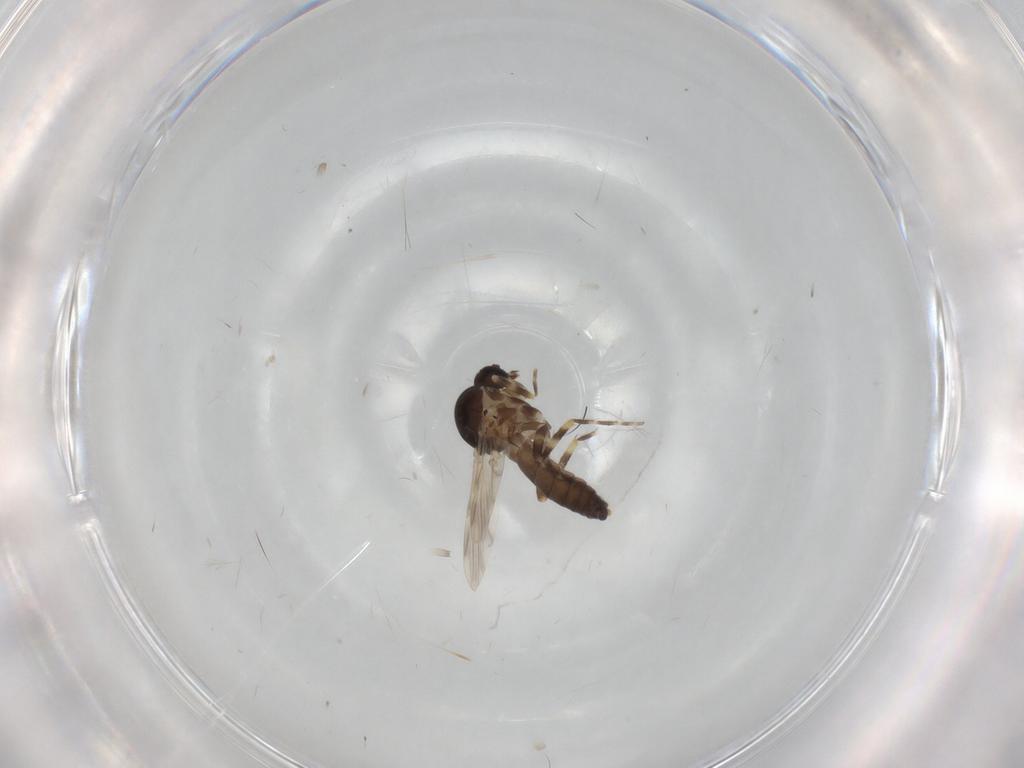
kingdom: Animalia
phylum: Arthropoda
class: Insecta
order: Diptera
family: Ceratopogonidae
